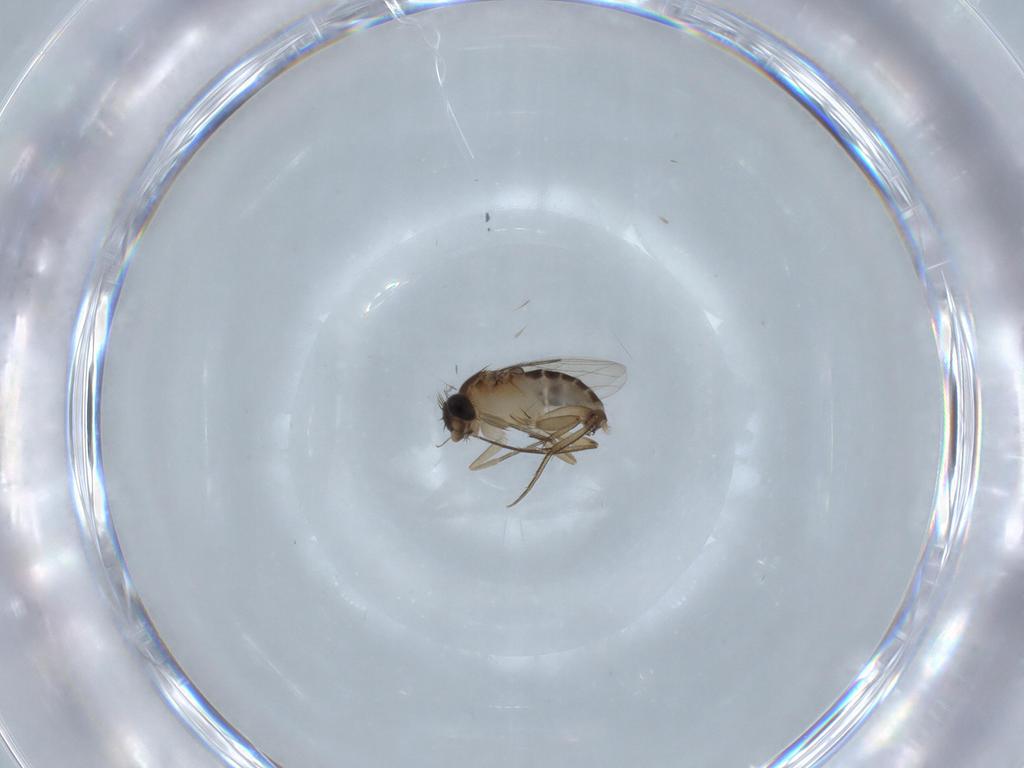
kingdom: Animalia
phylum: Arthropoda
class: Insecta
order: Diptera
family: Phoridae
